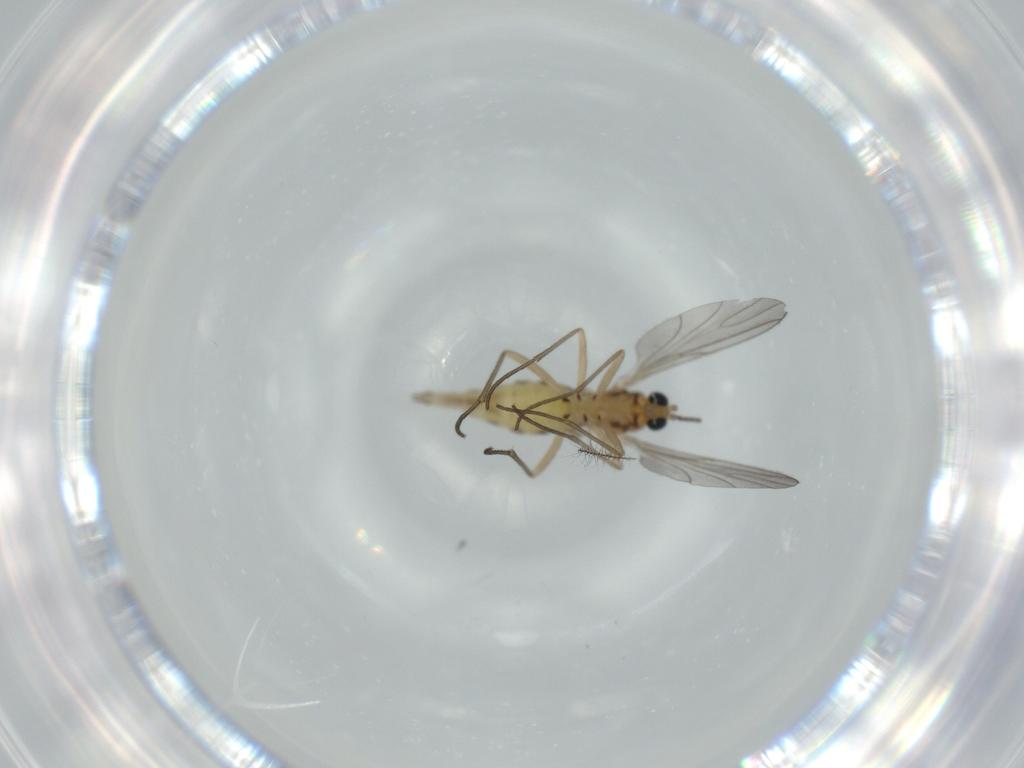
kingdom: Animalia
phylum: Arthropoda
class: Insecta
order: Diptera
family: Sciaridae
